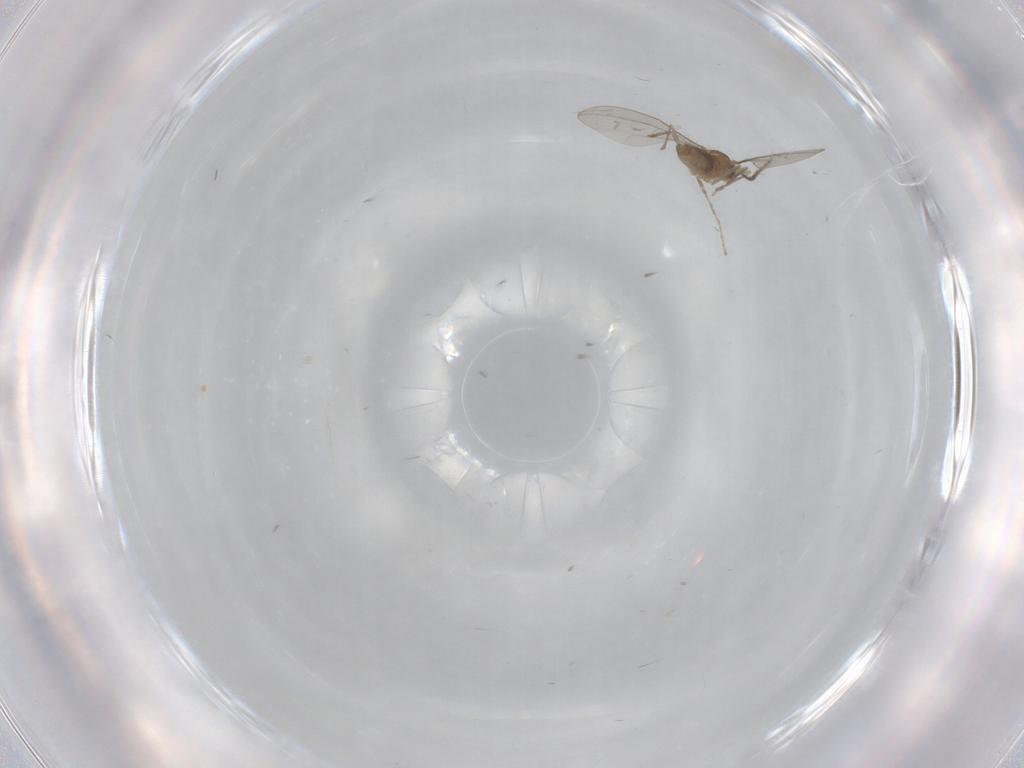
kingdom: Animalia
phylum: Arthropoda
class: Insecta
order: Diptera
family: Cecidomyiidae
